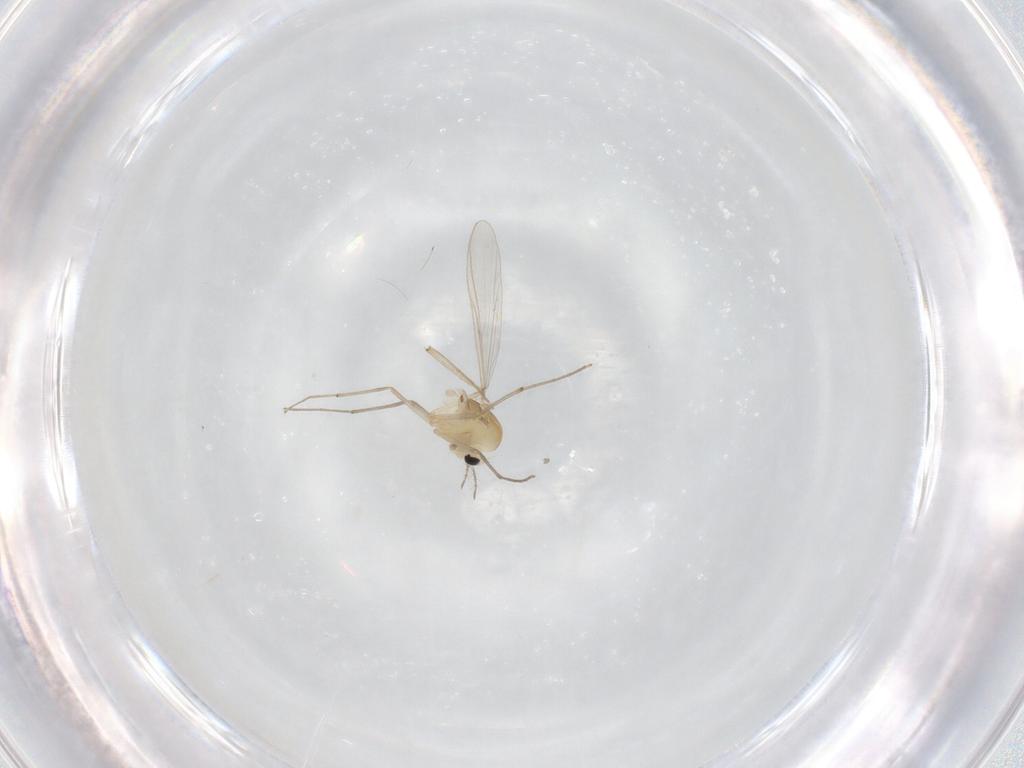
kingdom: Animalia
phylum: Arthropoda
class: Insecta
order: Diptera
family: Chironomidae
